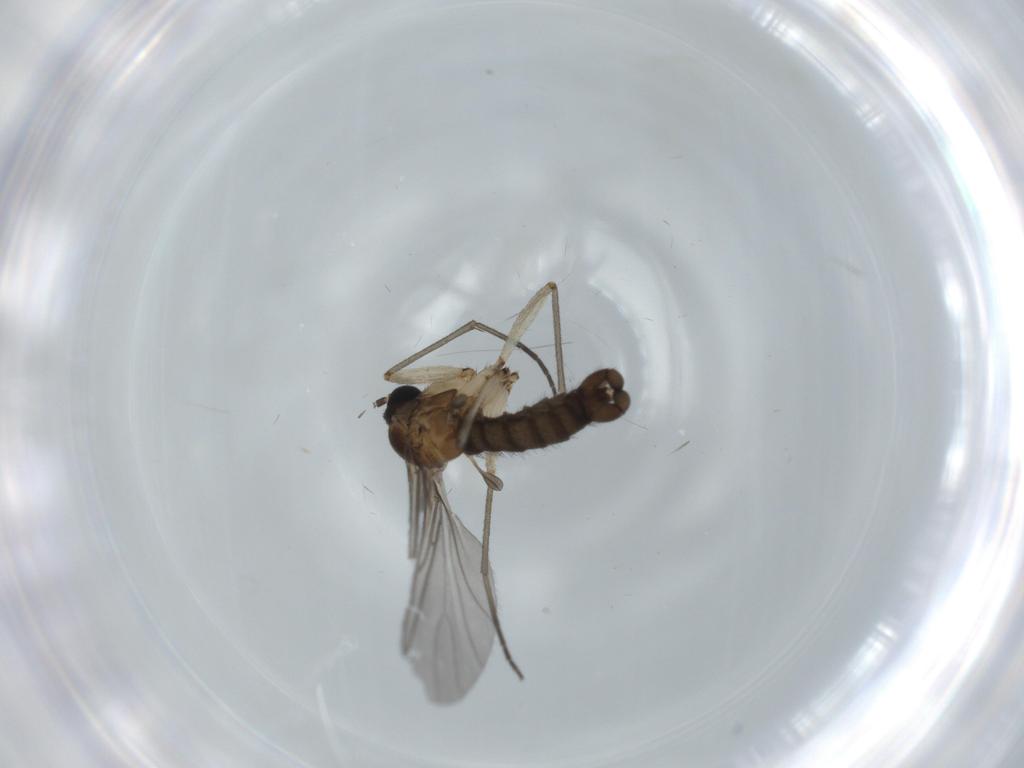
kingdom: Animalia
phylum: Arthropoda
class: Insecta
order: Diptera
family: Sciaridae
